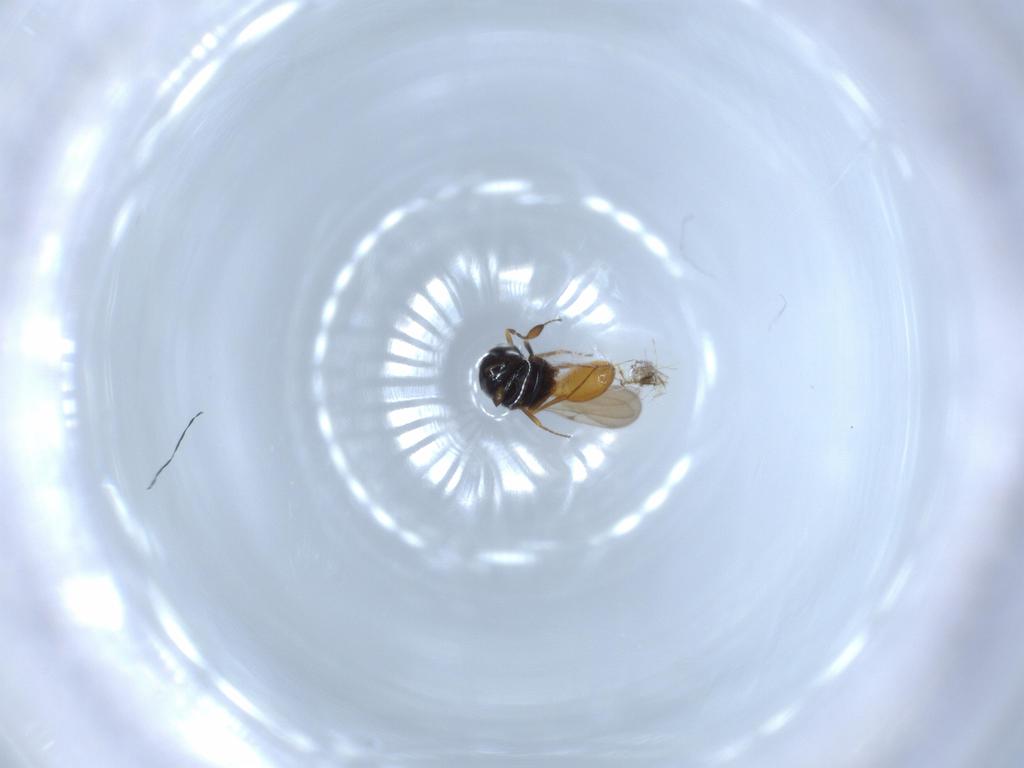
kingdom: Animalia
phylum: Arthropoda
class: Insecta
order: Hymenoptera
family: Scelionidae
